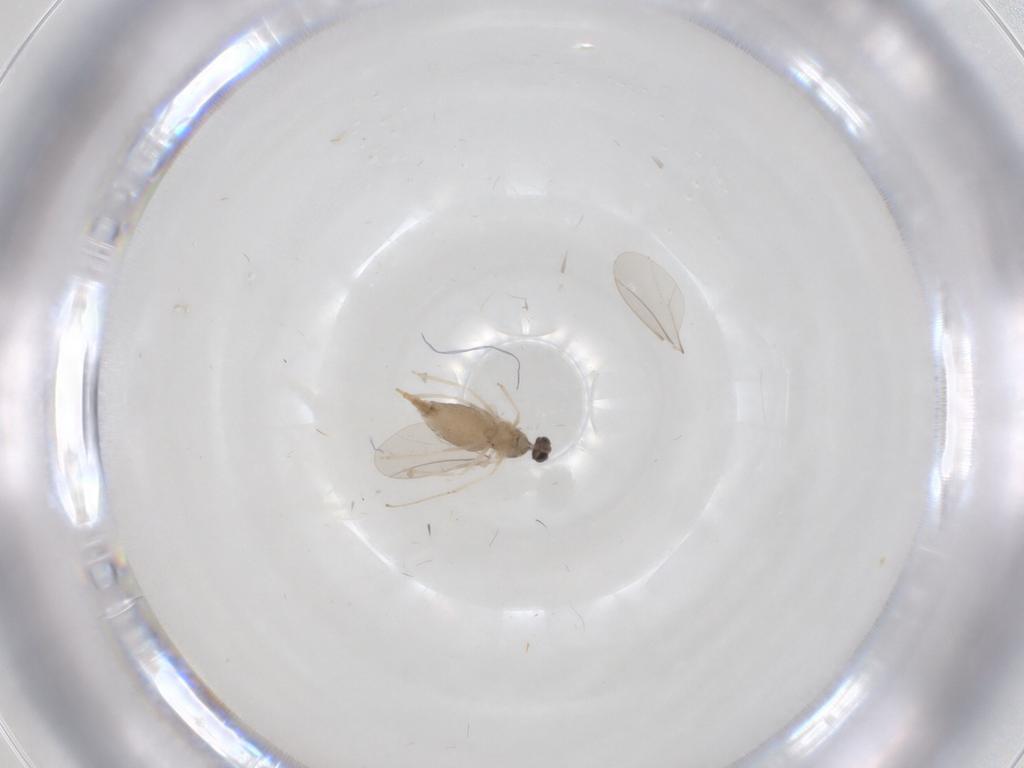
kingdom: Animalia
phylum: Arthropoda
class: Insecta
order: Diptera
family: Cecidomyiidae
